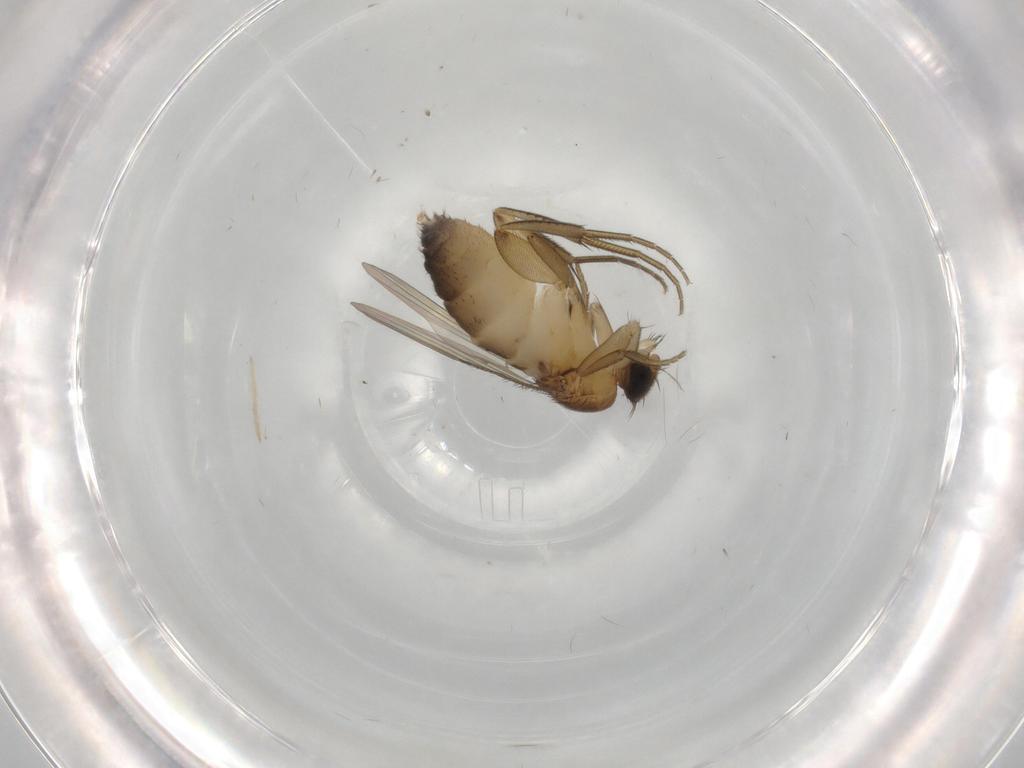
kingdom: Animalia
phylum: Arthropoda
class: Insecta
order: Diptera
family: Phoridae
